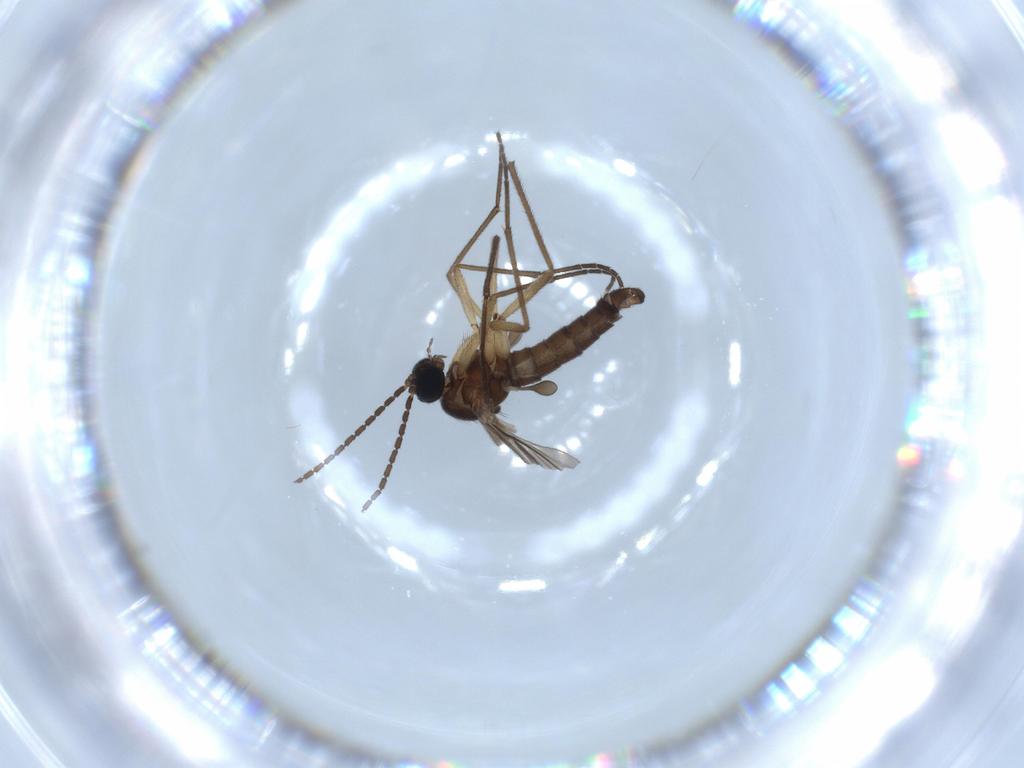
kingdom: Animalia
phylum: Arthropoda
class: Insecta
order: Diptera
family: Sciaridae
